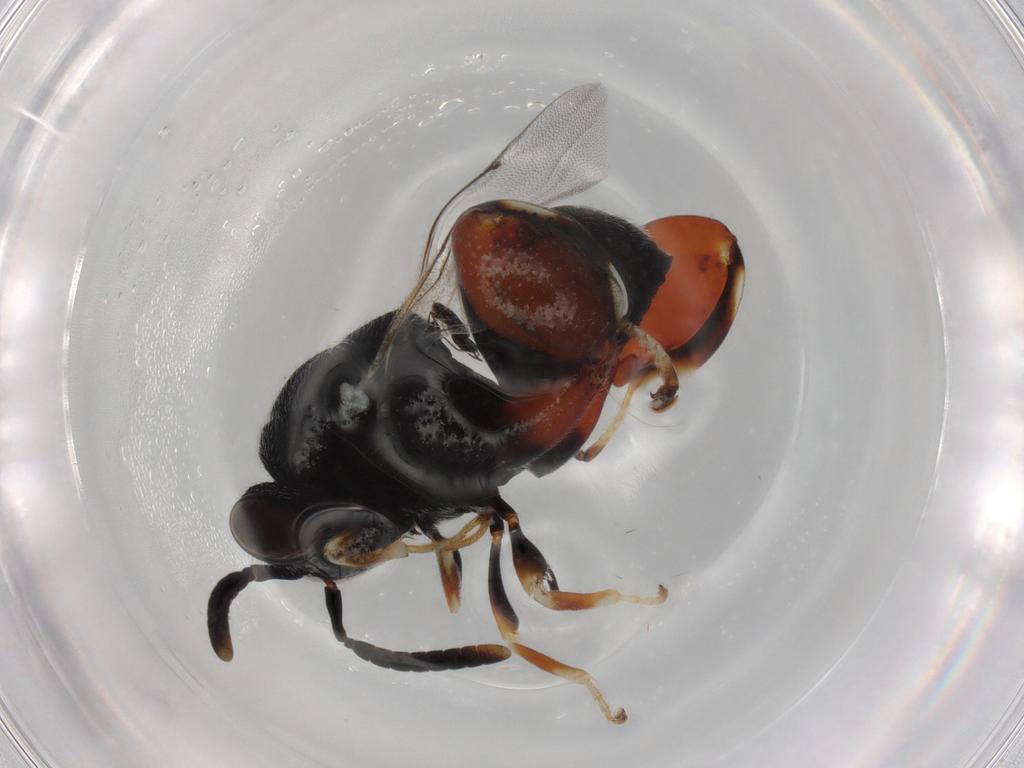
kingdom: Animalia
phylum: Arthropoda
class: Insecta
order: Hymenoptera
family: Chalcididae
